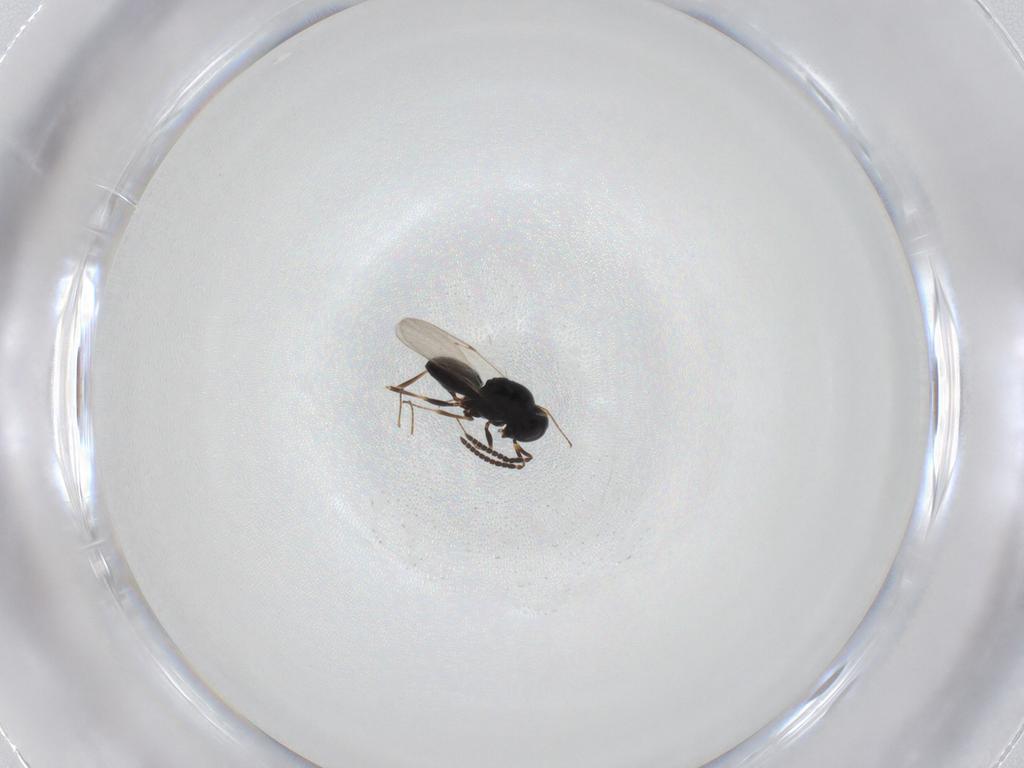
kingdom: Animalia
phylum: Arthropoda
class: Insecta
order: Hymenoptera
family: Scelionidae
